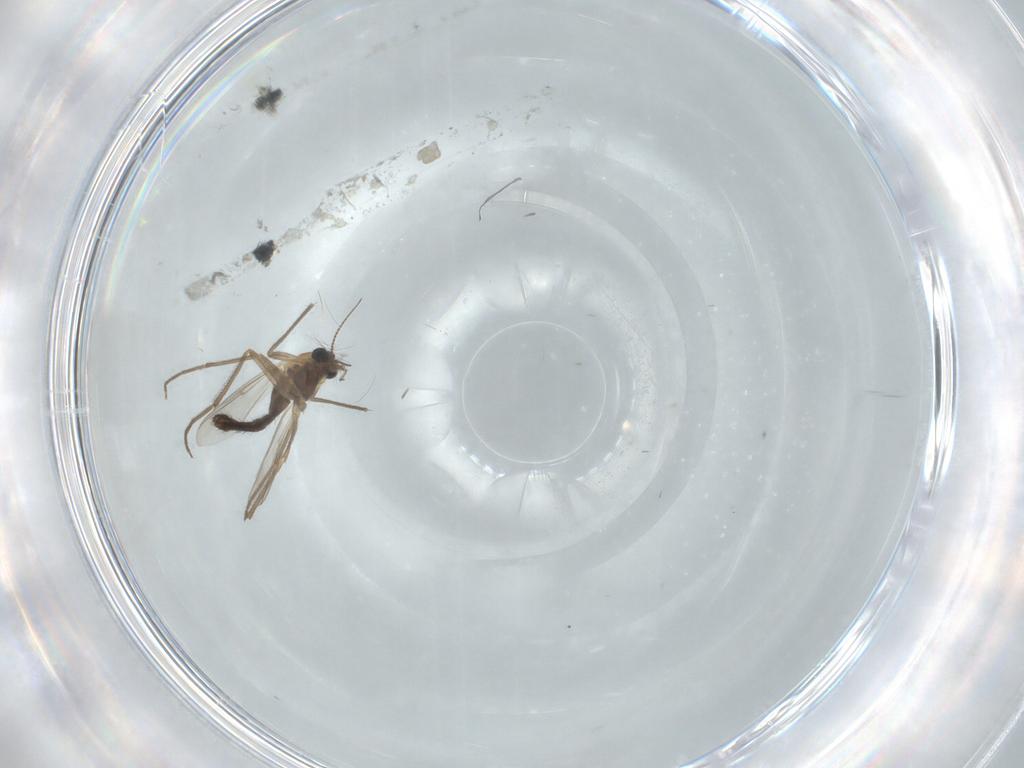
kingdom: Animalia
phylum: Arthropoda
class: Insecta
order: Diptera
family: Chironomidae
